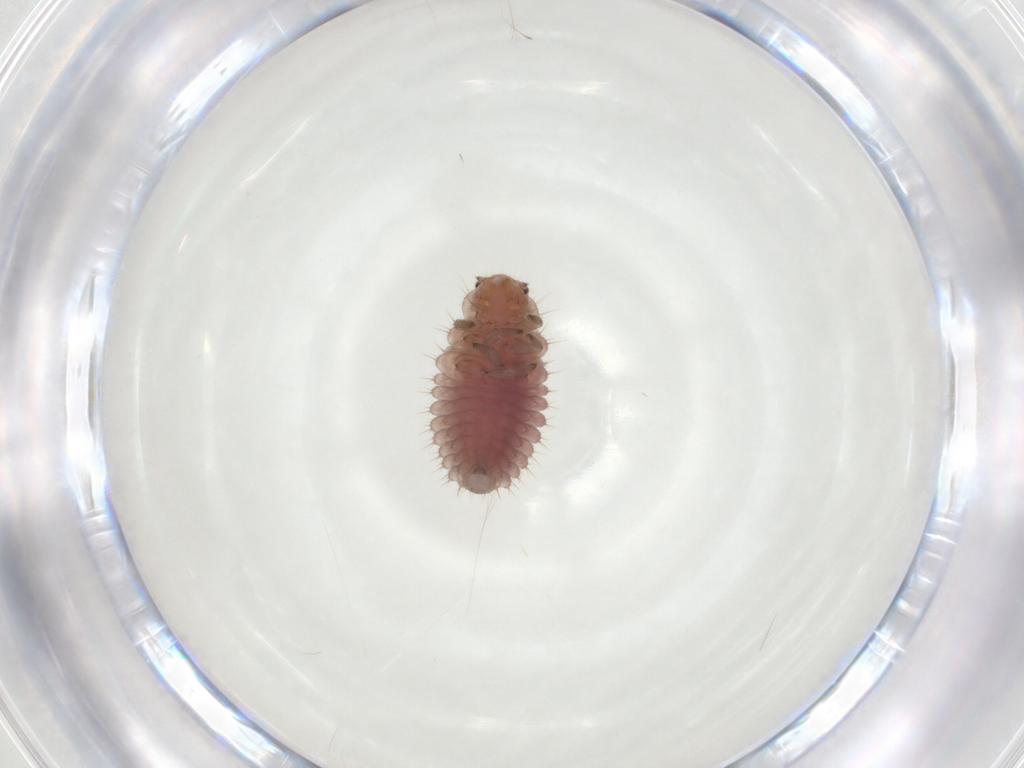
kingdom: Animalia
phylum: Arthropoda
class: Insecta
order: Coleoptera
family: Coccinellidae
